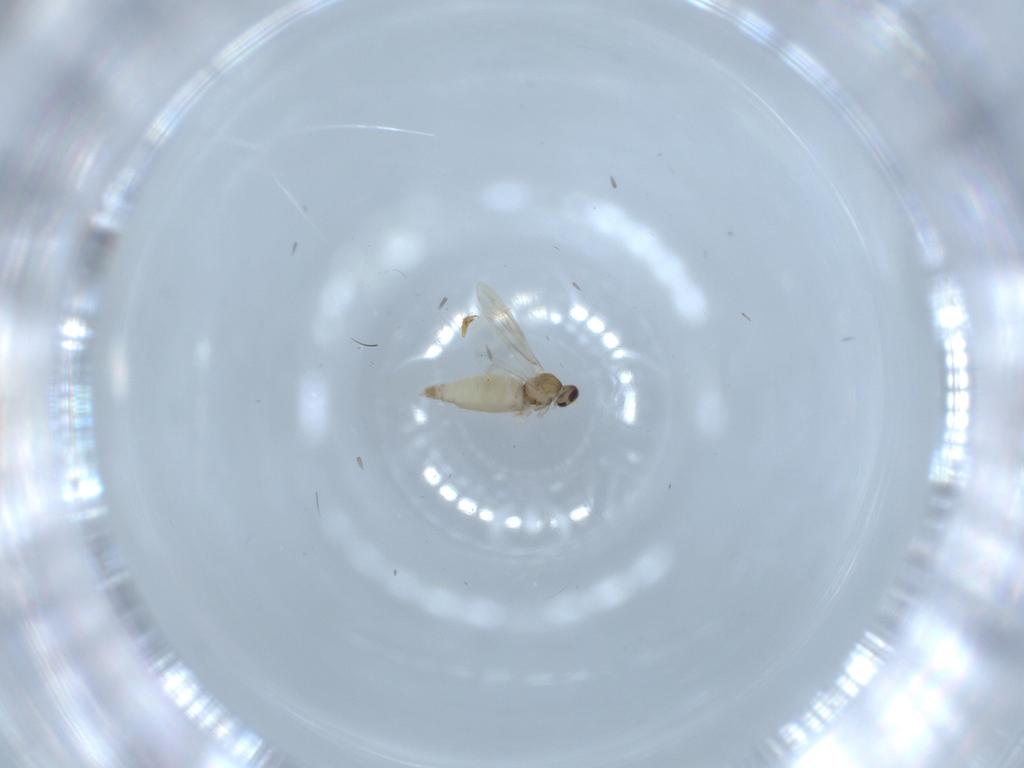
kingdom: Animalia
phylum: Arthropoda
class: Insecta
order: Diptera
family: Cecidomyiidae
